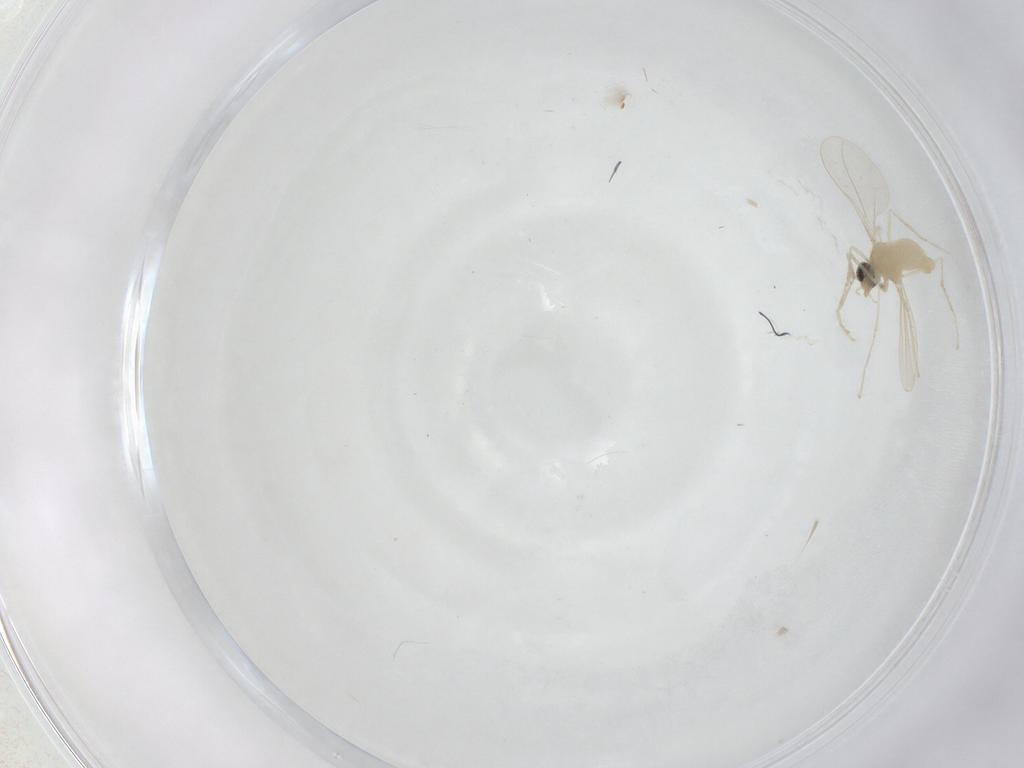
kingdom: Animalia
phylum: Arthropoda
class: Insecta
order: Diptera
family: Cecidomyiidae
